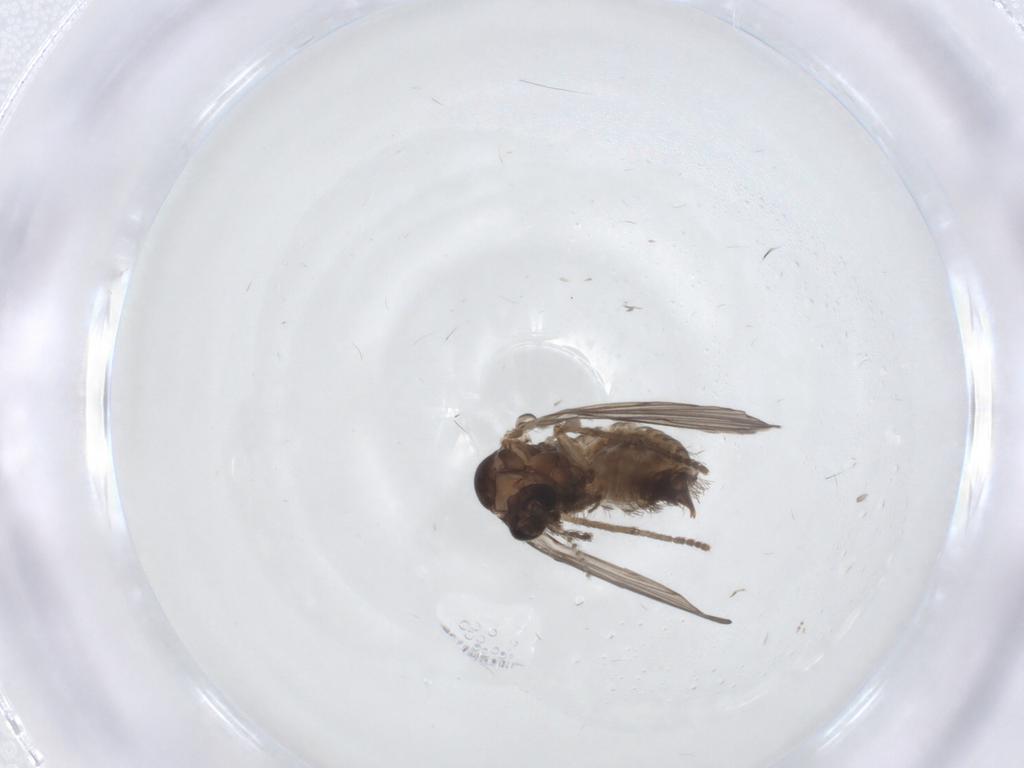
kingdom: Animalia
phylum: Arthropoda
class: Insecta
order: Diptera
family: Psychodidae
